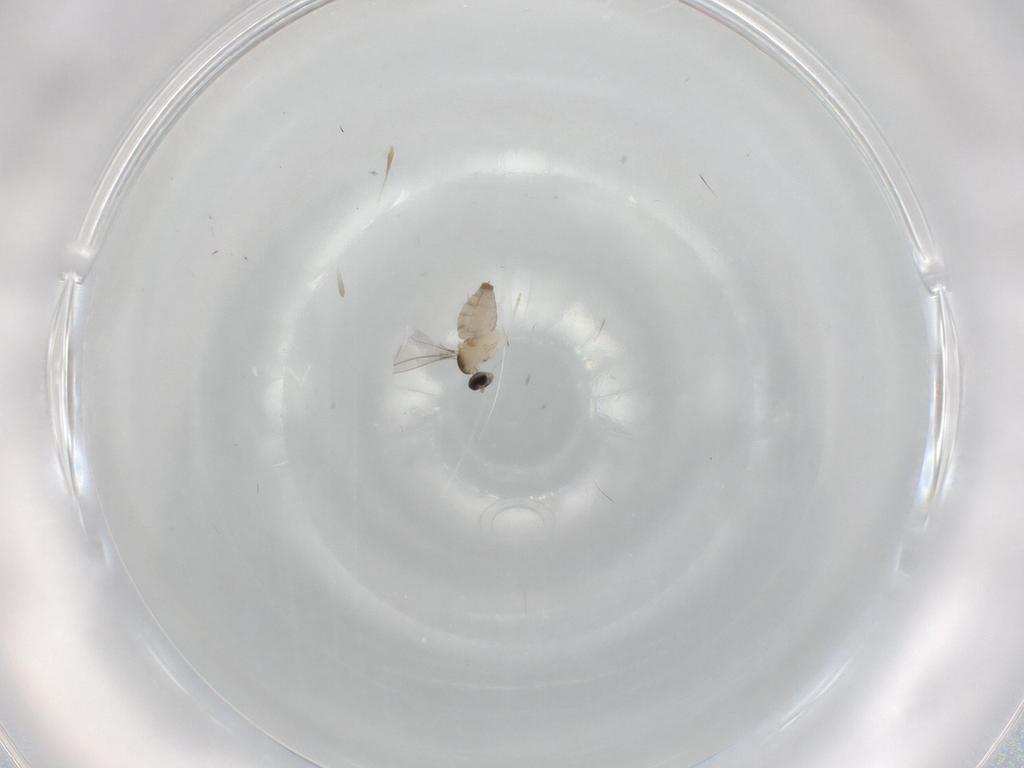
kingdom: Animalia
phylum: Arthropoda
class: Insecta
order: Diptera
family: Cecidomyiidae
